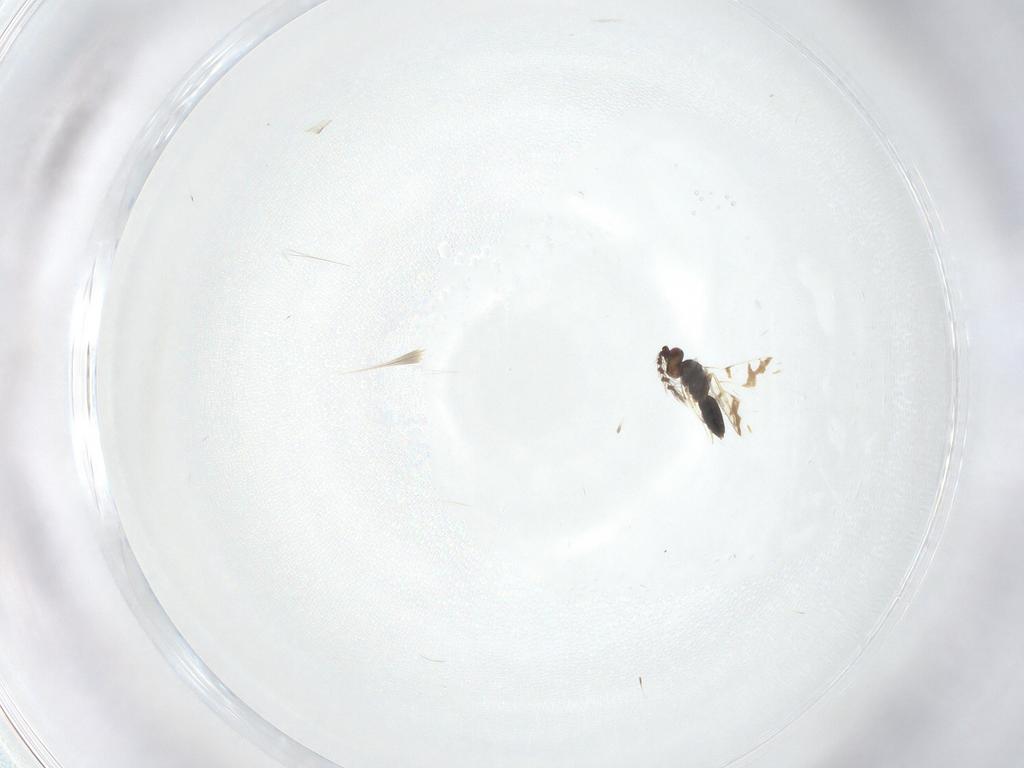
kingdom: Animalia
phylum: Arthropoda
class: Insecta
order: Hymenoptera
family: Eulophidae
